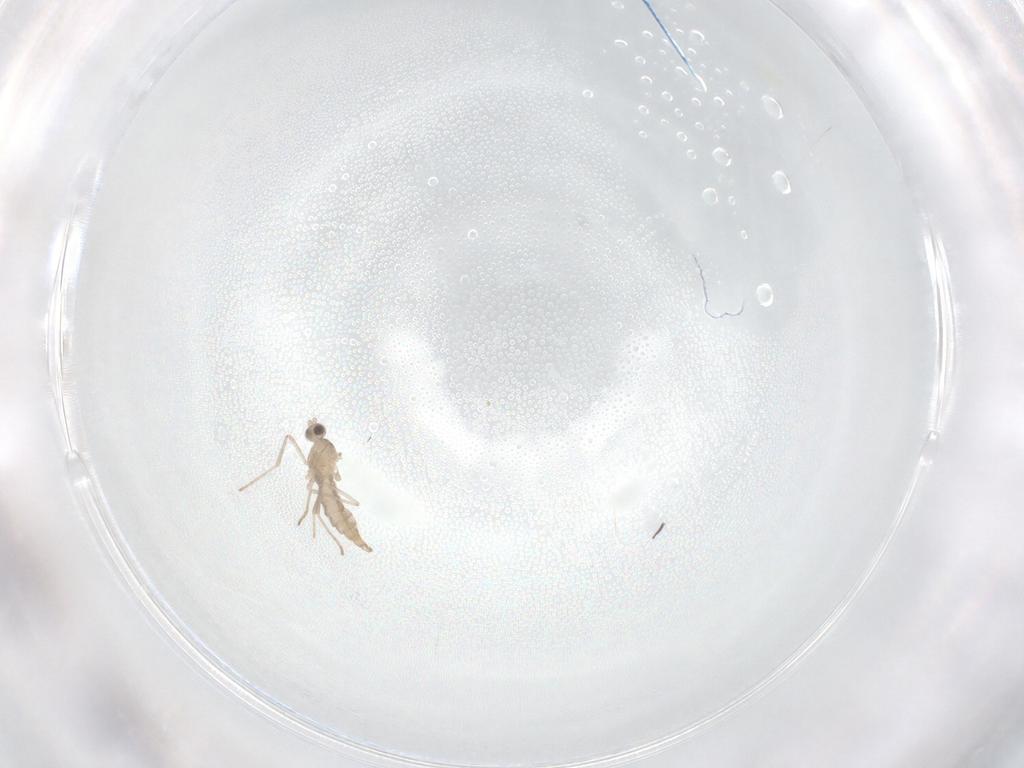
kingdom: Animalia
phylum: Arthropoda
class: Insecta
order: Diptera
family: Cecidomyiidae
